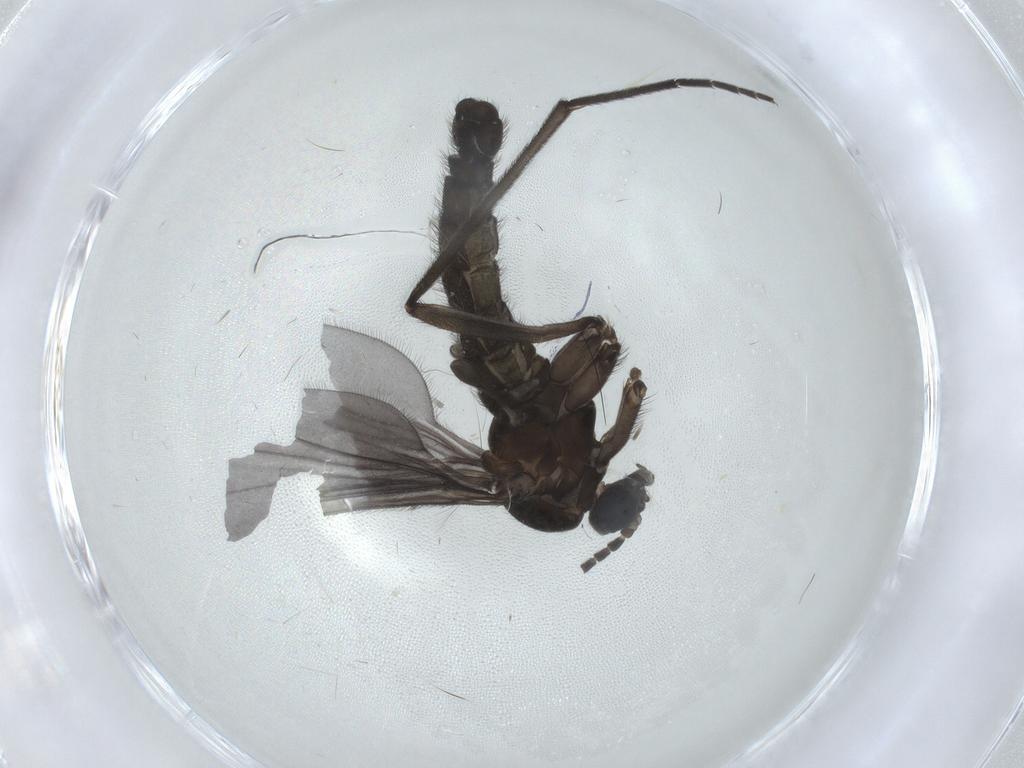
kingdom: Animalia
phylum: Arthropoda
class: Insecta
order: Diptera
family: Sciaridae
